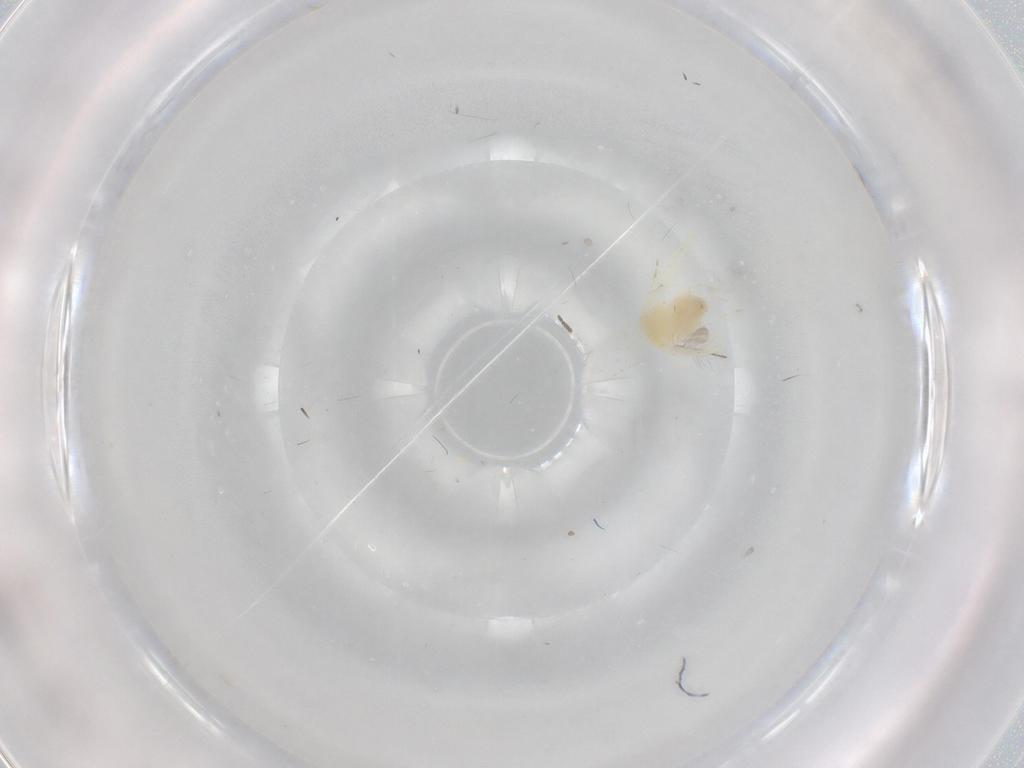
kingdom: Animalia
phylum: Arthropoda
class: Insecta
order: Hemiptera
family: Aleyrodidae
